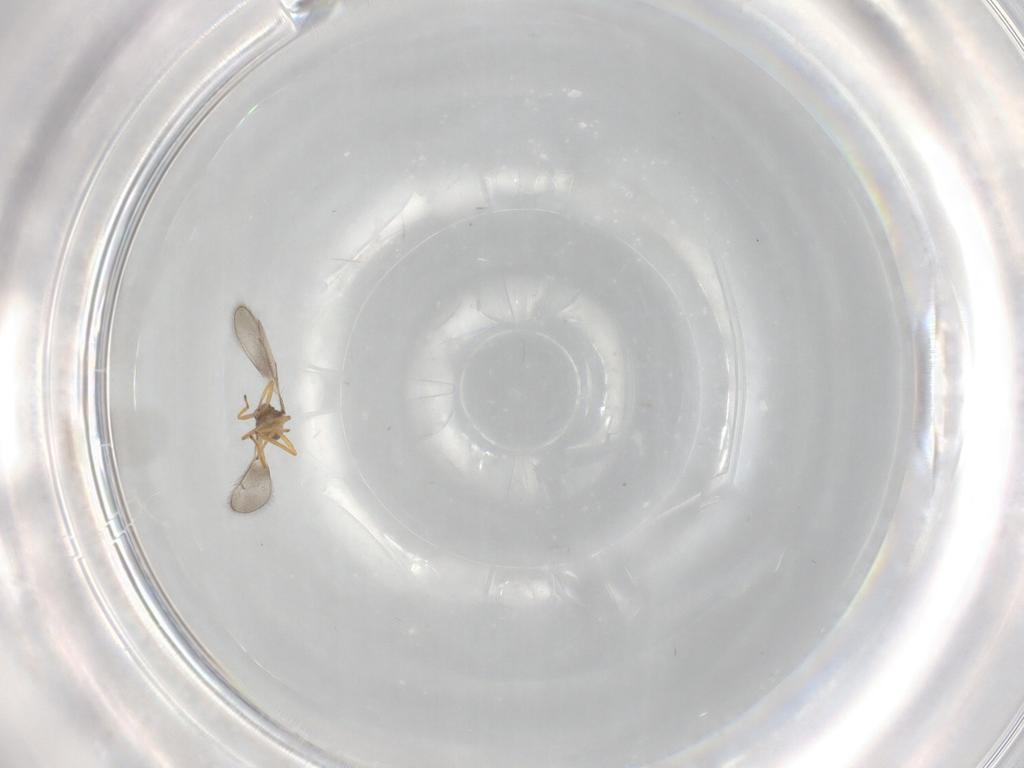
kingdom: Animalia
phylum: Arthropoda
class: Insecta
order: Hymenoptera
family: Eulophidae
